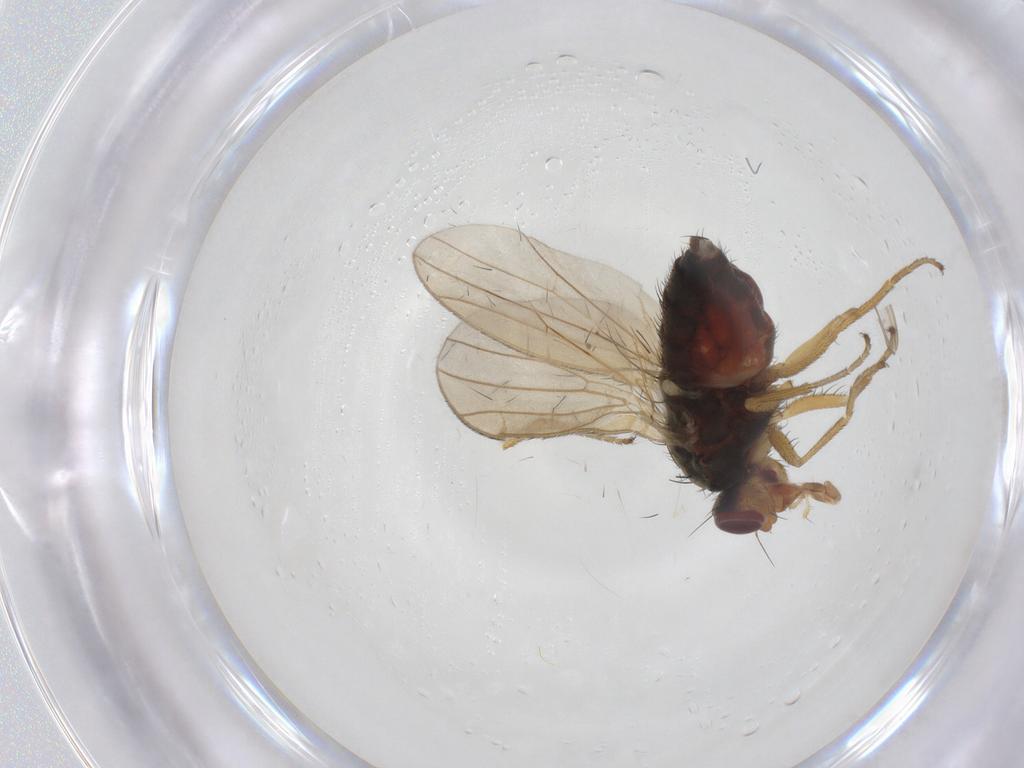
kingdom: Animalia
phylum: Arthropoda
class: Insecta
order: Diptera
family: Heleomyzidae
